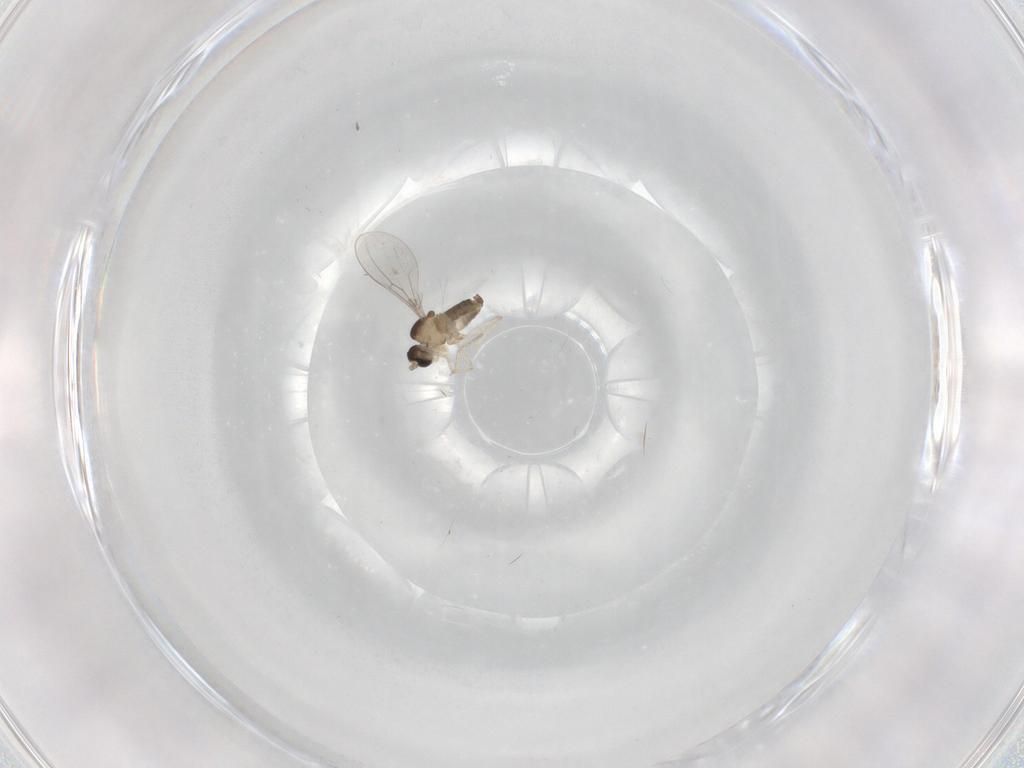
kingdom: Animalia
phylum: Arthropoda
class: Insecta
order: Diptera
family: Cecidomyiidae
